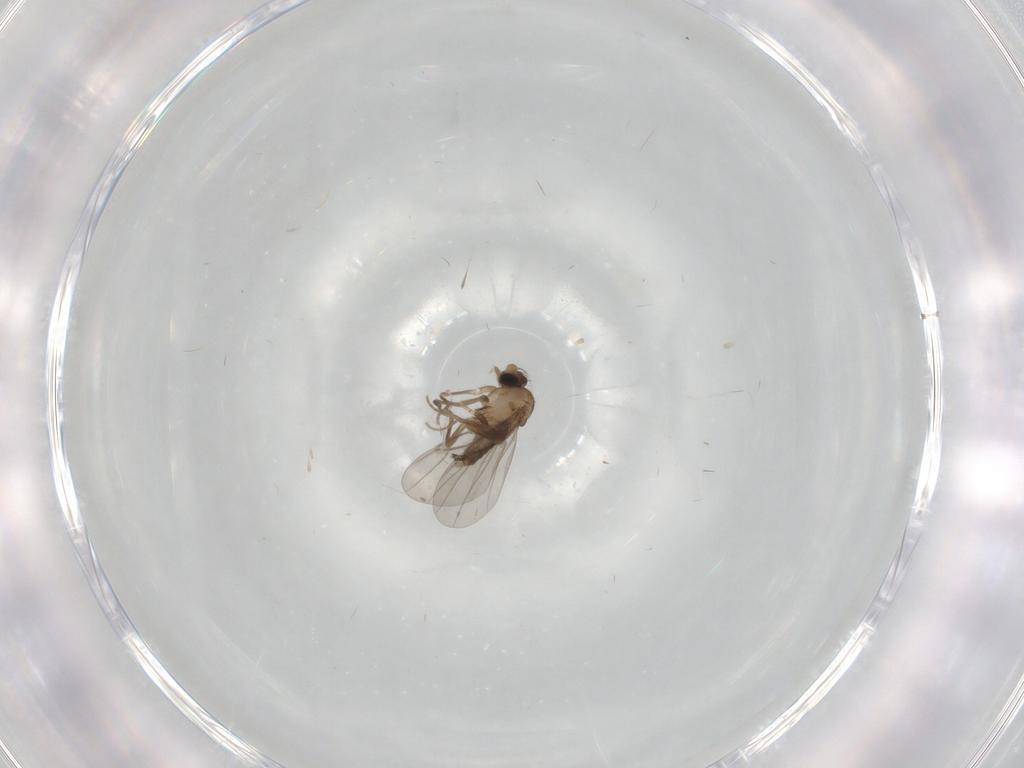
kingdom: Animalia
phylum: Arthropoda
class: Insecta
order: Diptera
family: Chironomidae
